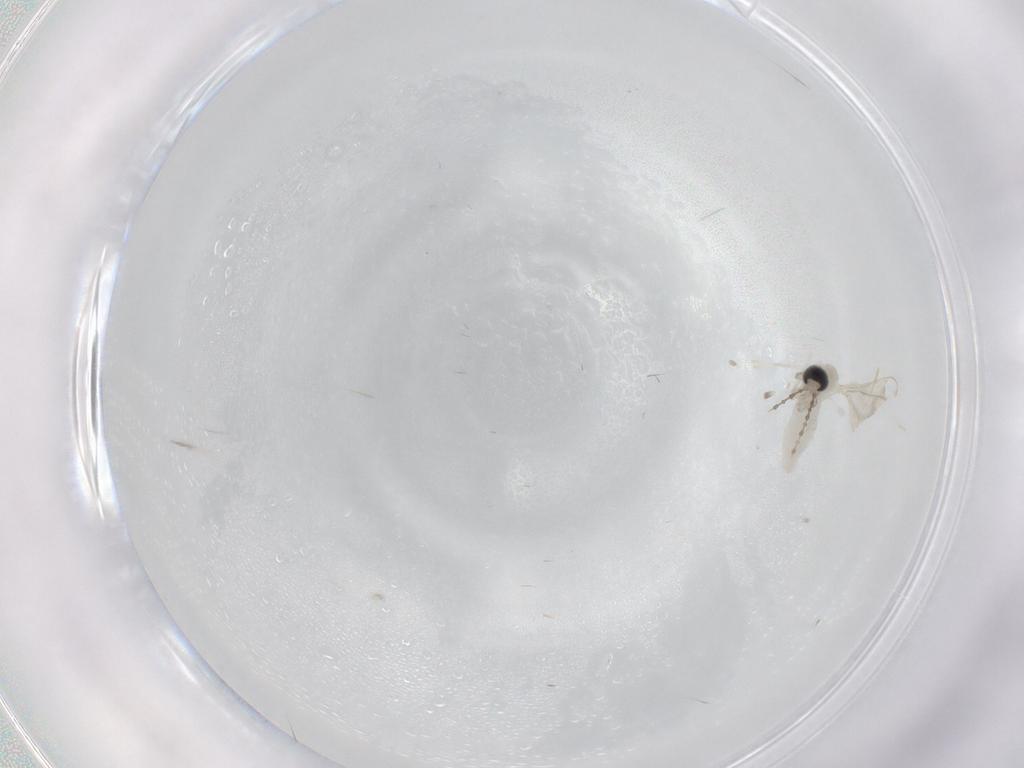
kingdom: Animalia
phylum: Arthropoda
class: Insecta
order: Diptera
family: Cecidomyiidae
